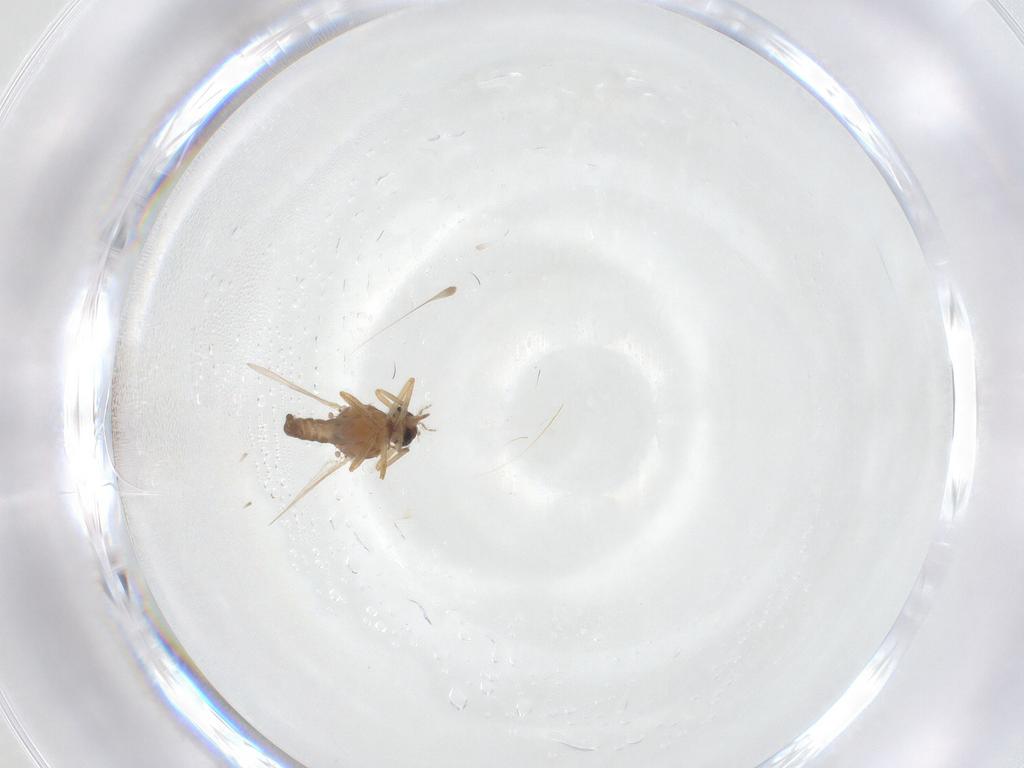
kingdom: Animalia
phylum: Arthropoda
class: Insecta
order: Diptera
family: Ceratopogonidae
